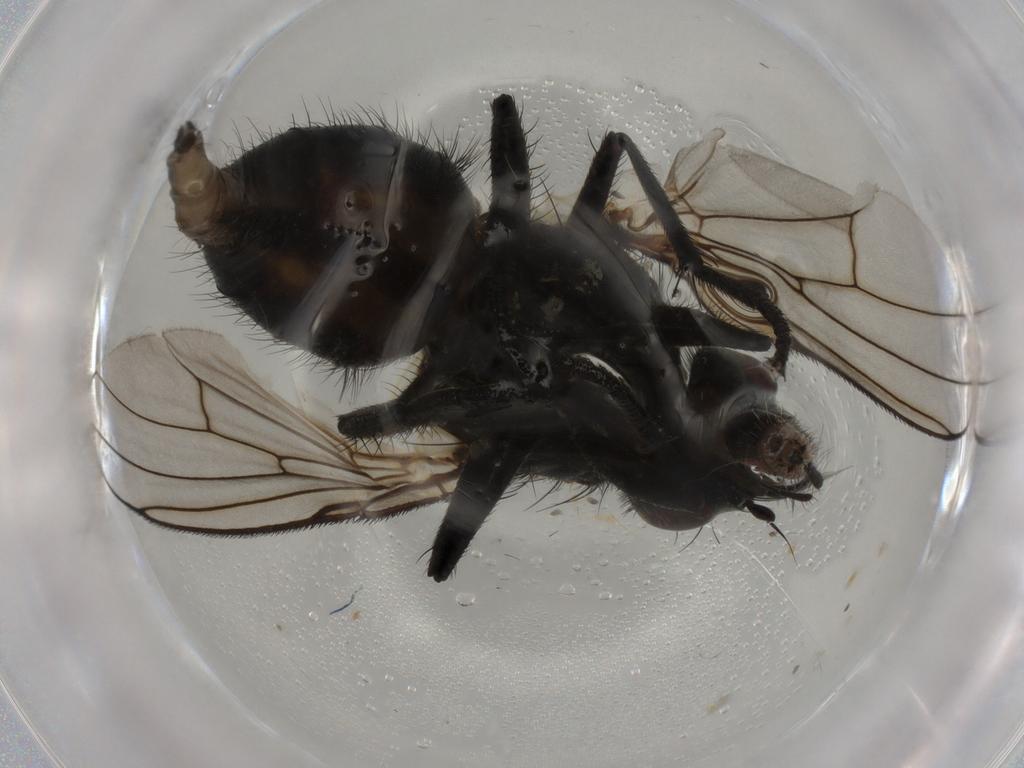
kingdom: Animalia
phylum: Arthropoda
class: Insecta
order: Diptera
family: Muscidae
